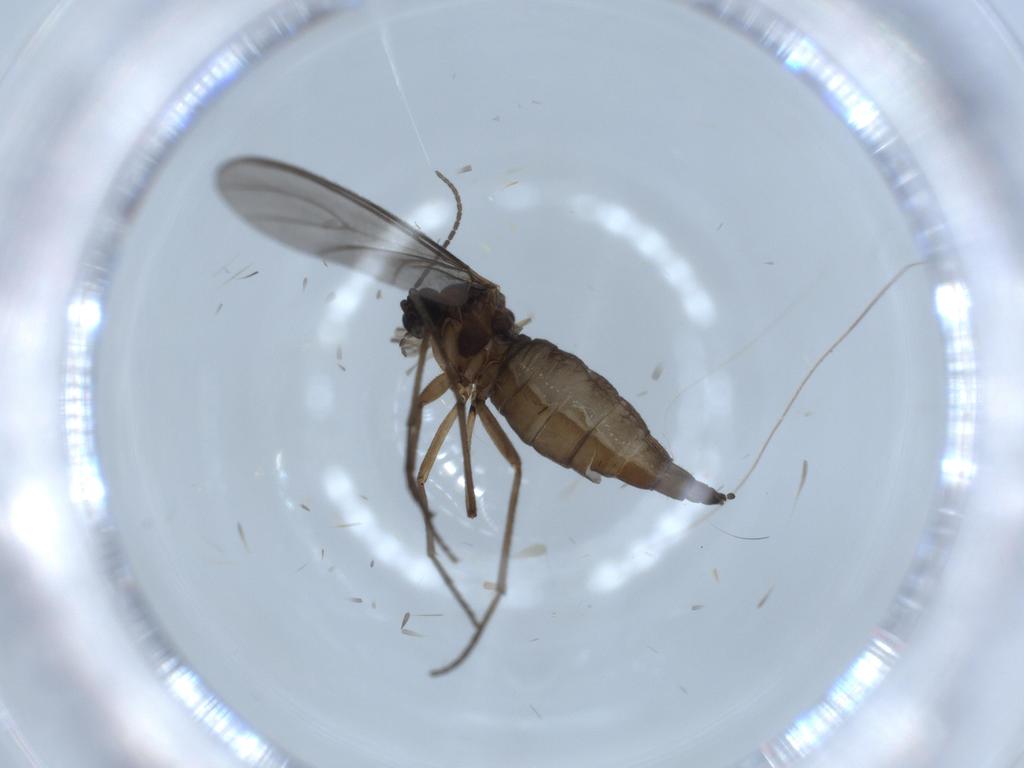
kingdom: Animalia
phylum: Arthropoda
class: Insecta
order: Diptera
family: Sciaridae
